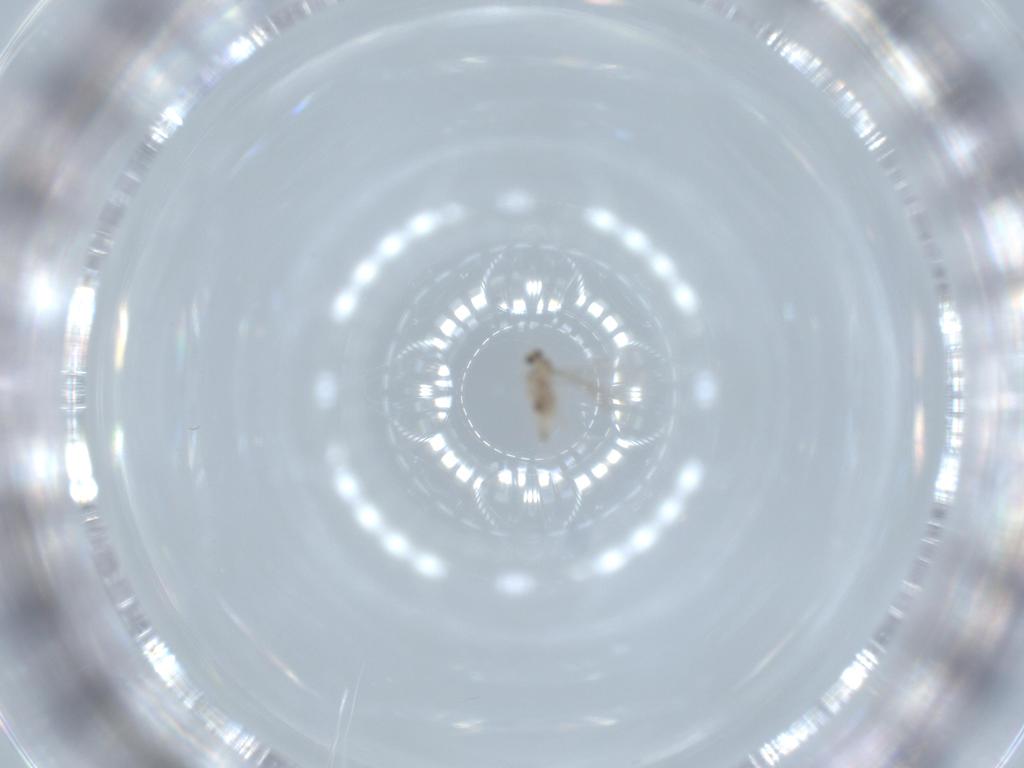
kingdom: Animalia
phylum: Arthropoda
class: Insecta
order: Diptera
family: Cecidomyiidae
